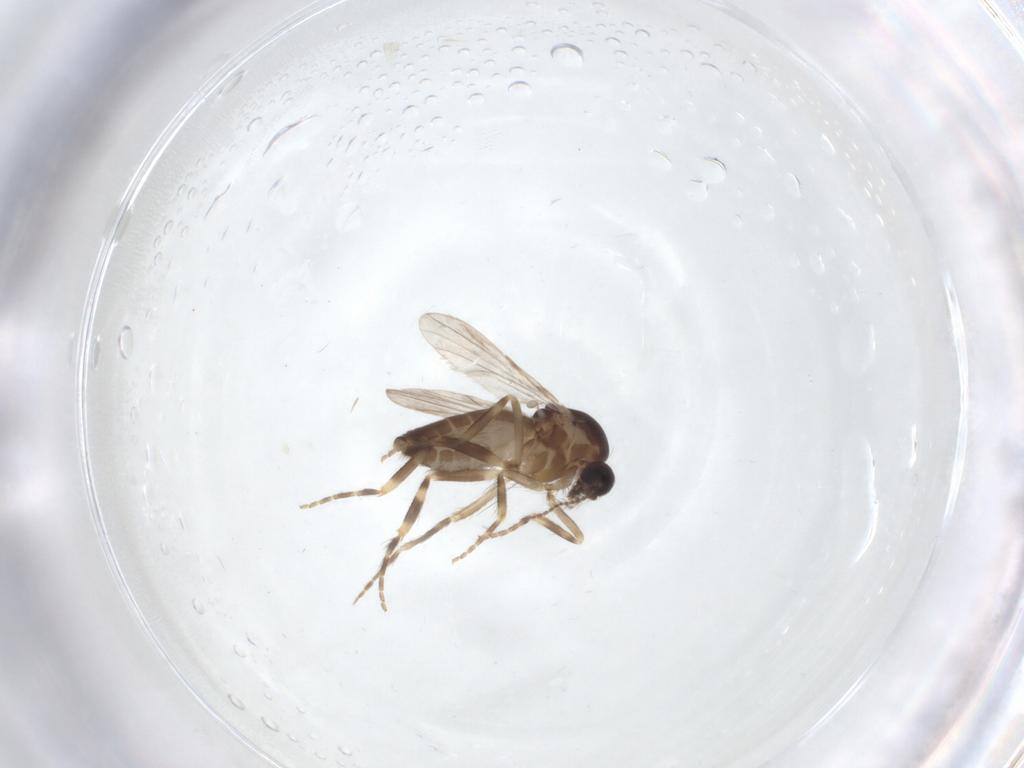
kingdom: Animalia
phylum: Arthropoda
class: Insecta
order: Diptera
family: Ceratopogonidae
